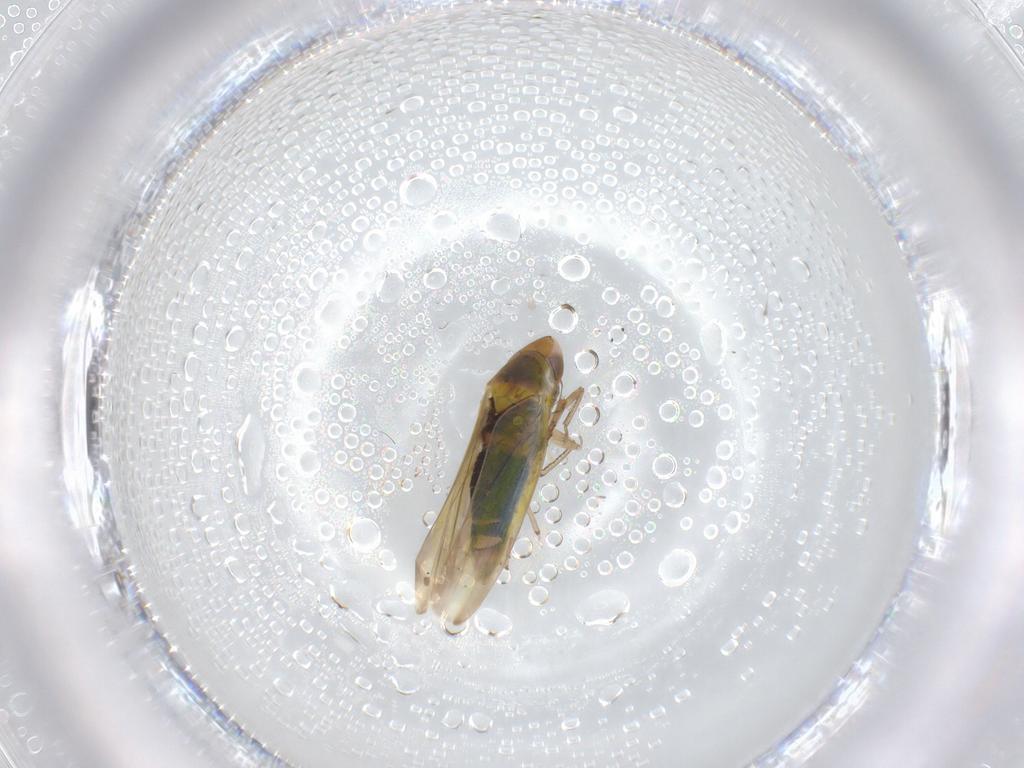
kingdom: Animalia
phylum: Arthropoda
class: Insecta
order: Hemiptera
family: Cicadellidae
